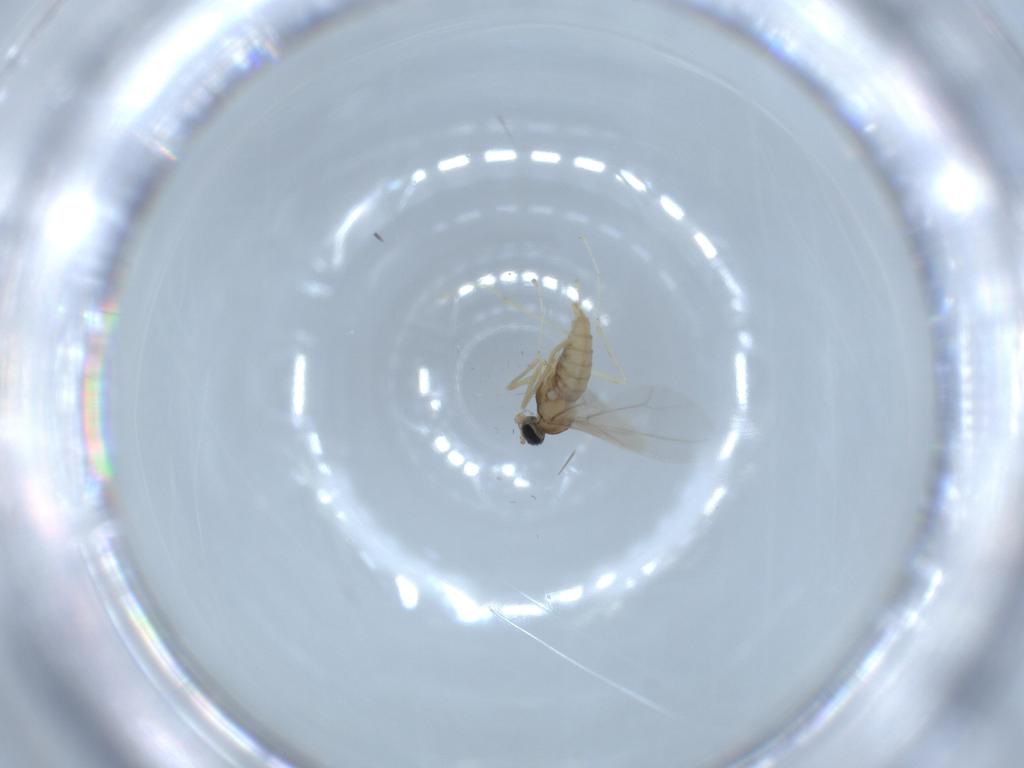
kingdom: Animalia
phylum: Arthropoda
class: Insecta
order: Diptera
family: Cecidomyiidae
